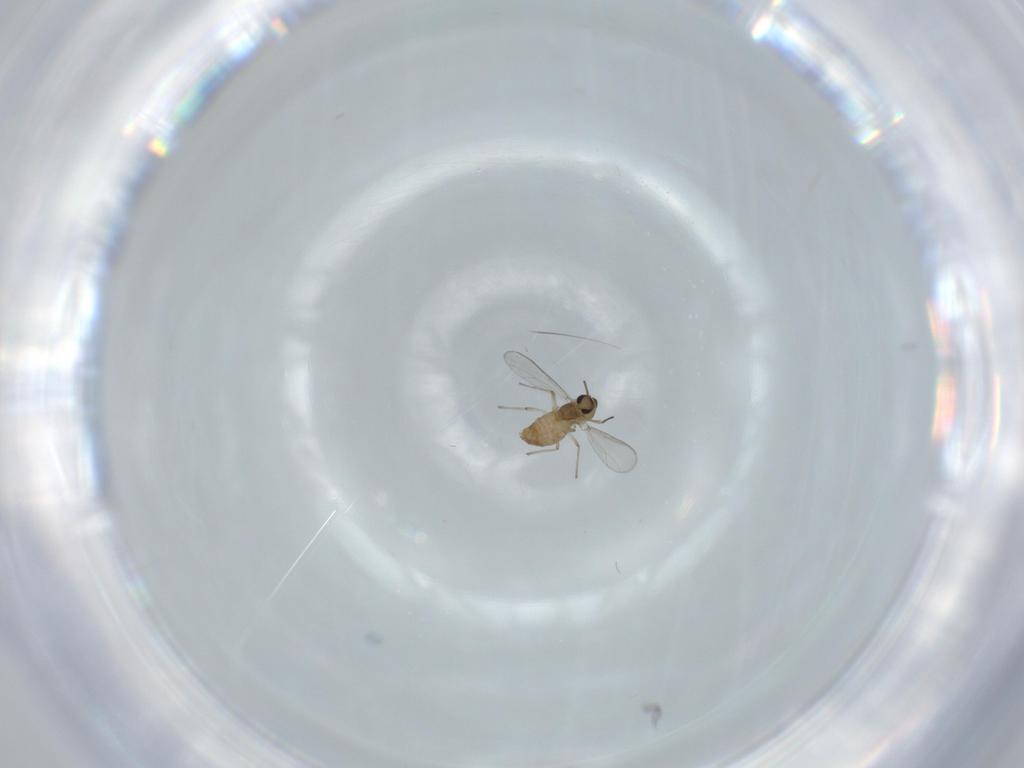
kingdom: Animalia
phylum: Arthropoda
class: Insecta
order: Diptera
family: Chironomidae
